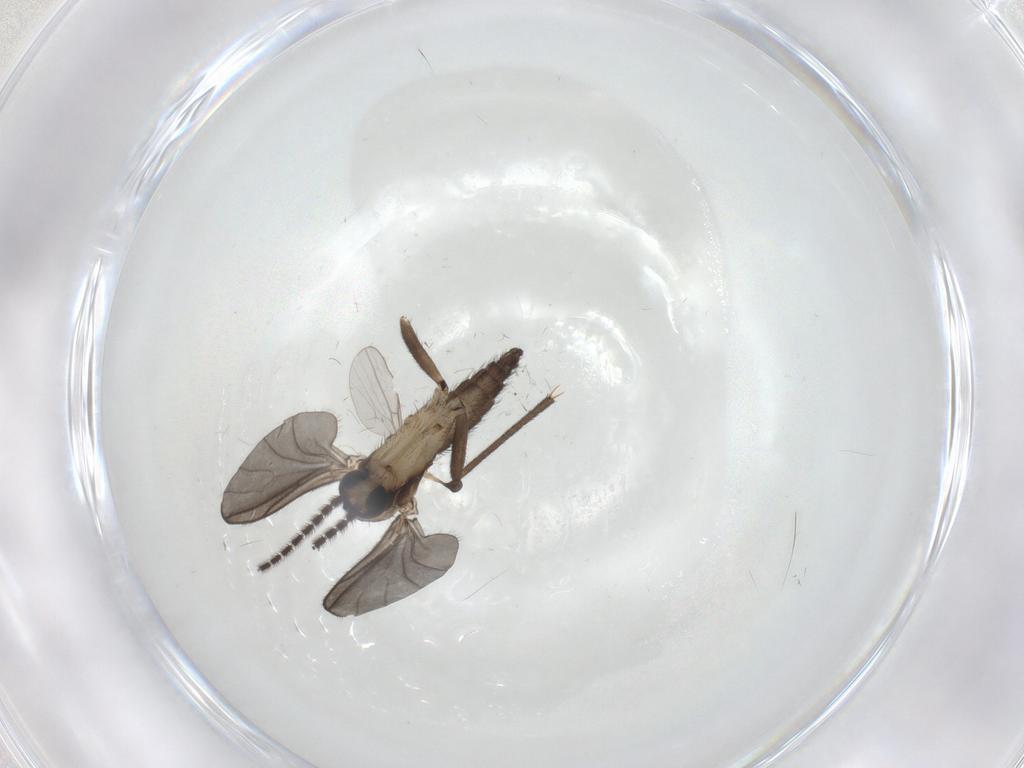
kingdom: Animalia
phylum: Arthropoda
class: Insecta
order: Diptera
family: Sciaridae
